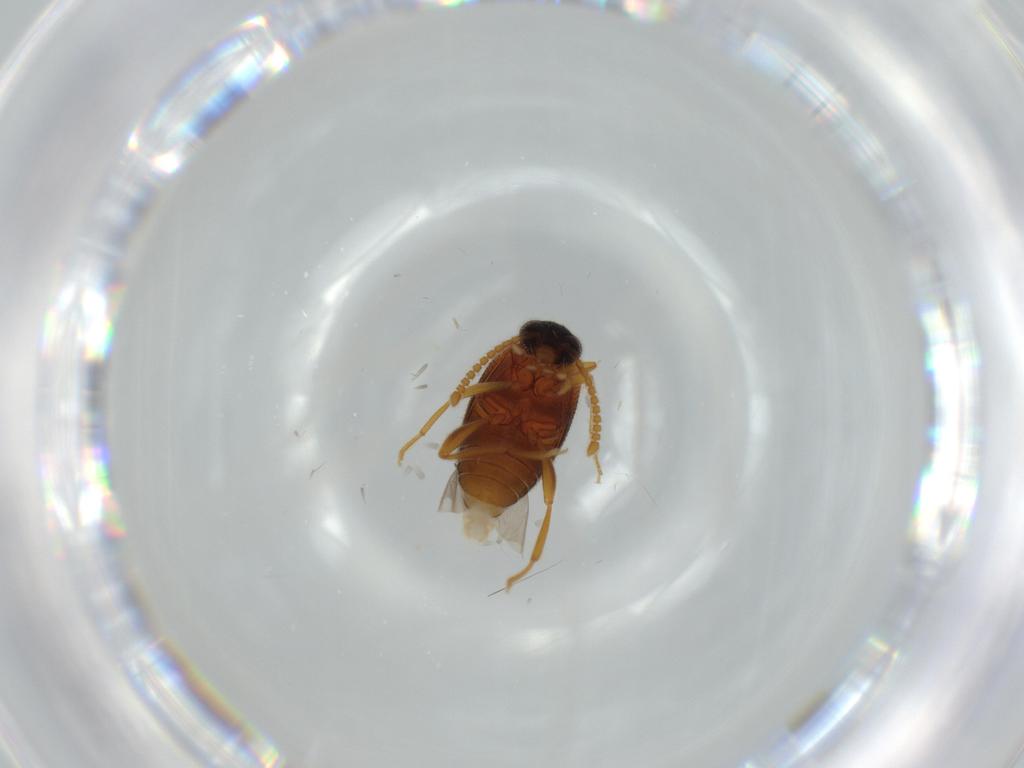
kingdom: Animalia
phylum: Arthropoda
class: Insecta
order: Coleoptera
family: Aderidae
